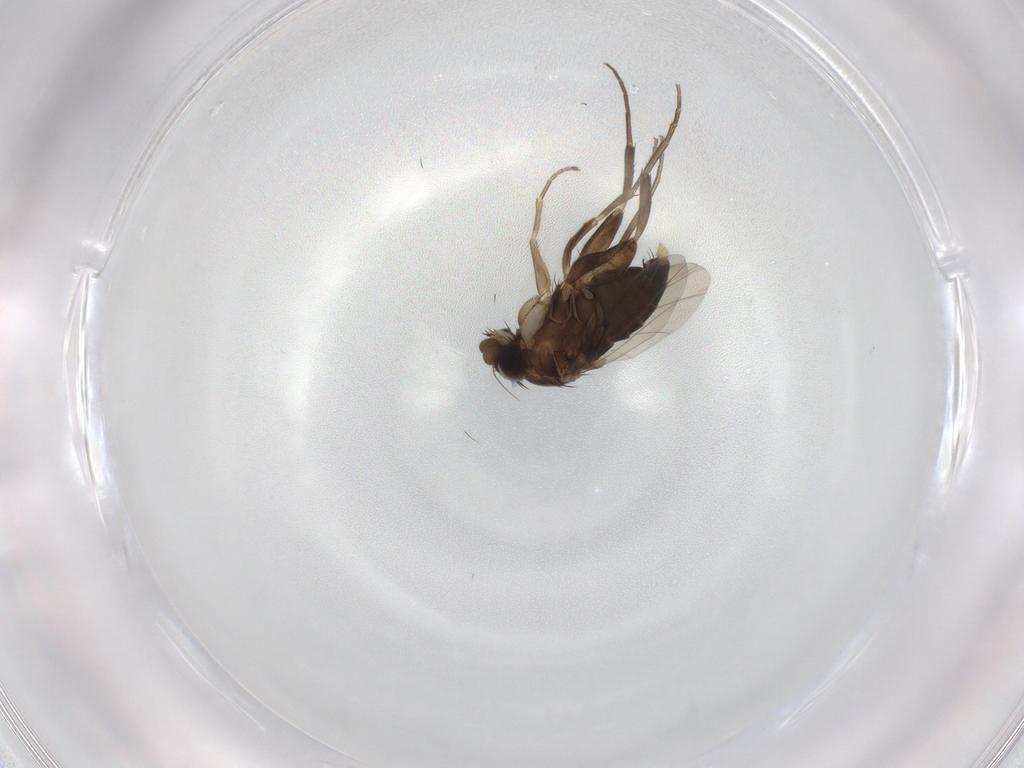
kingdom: Animalia
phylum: Arthropoda
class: Insecta
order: Diptera
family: Phoridae
